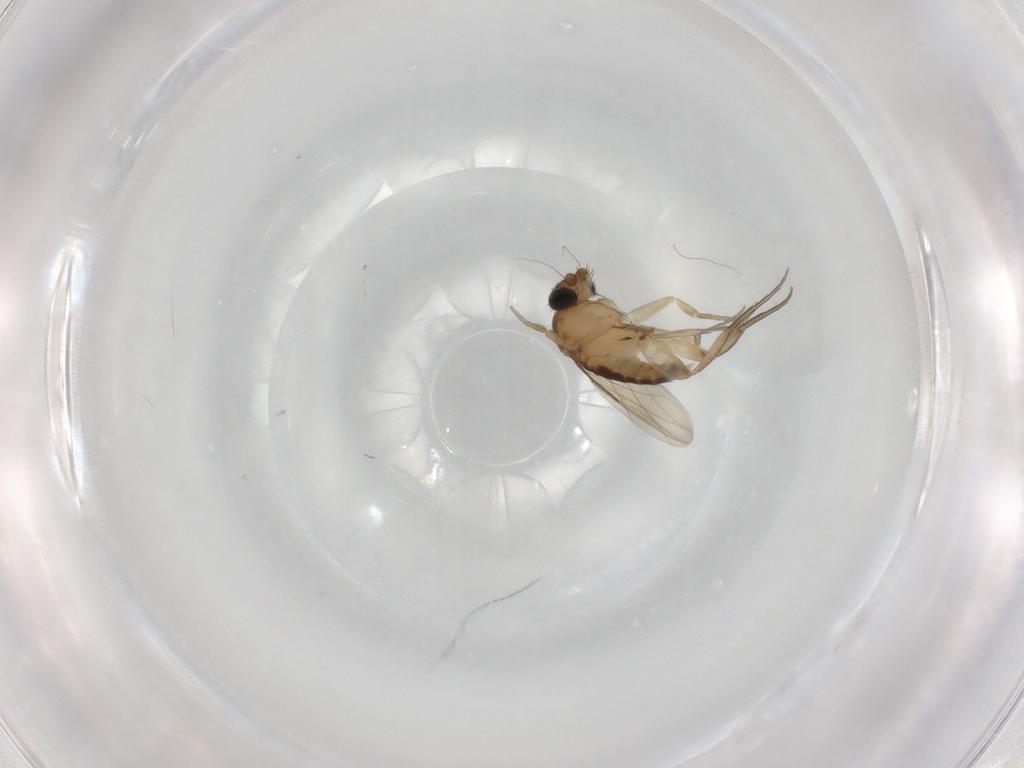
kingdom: Animalia
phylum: Arthropoda
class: Insecta
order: Diptera
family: Phoridae
